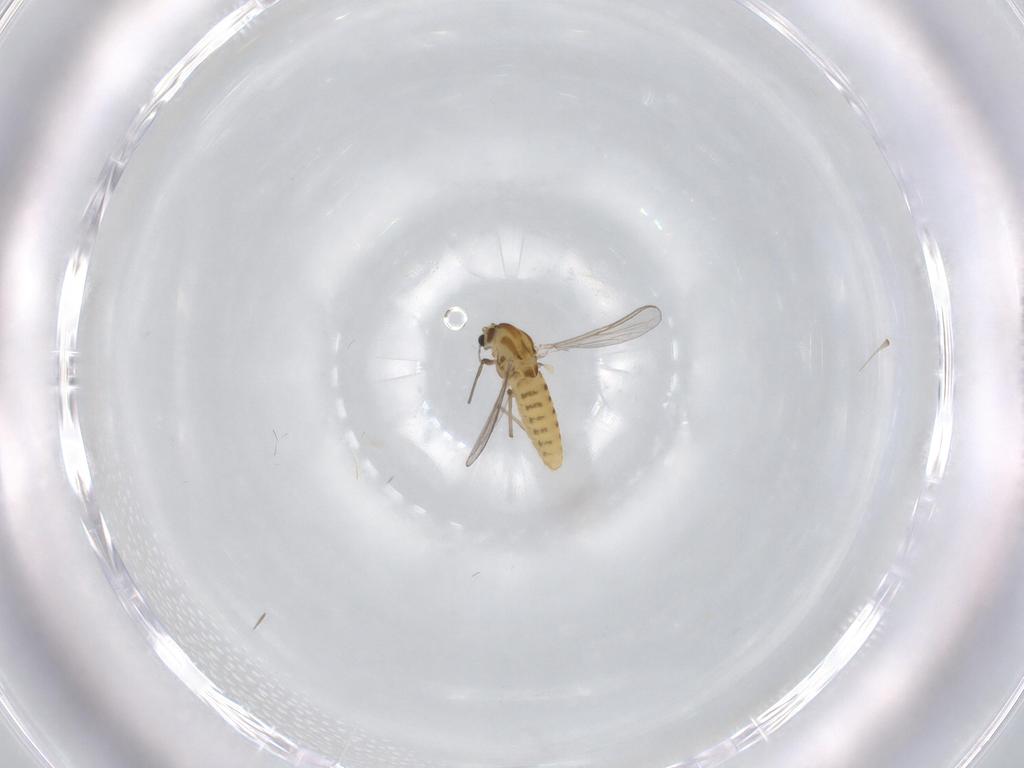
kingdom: Animalia
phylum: Arthropoda
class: Insecta
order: Diptera
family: Chironomidae
